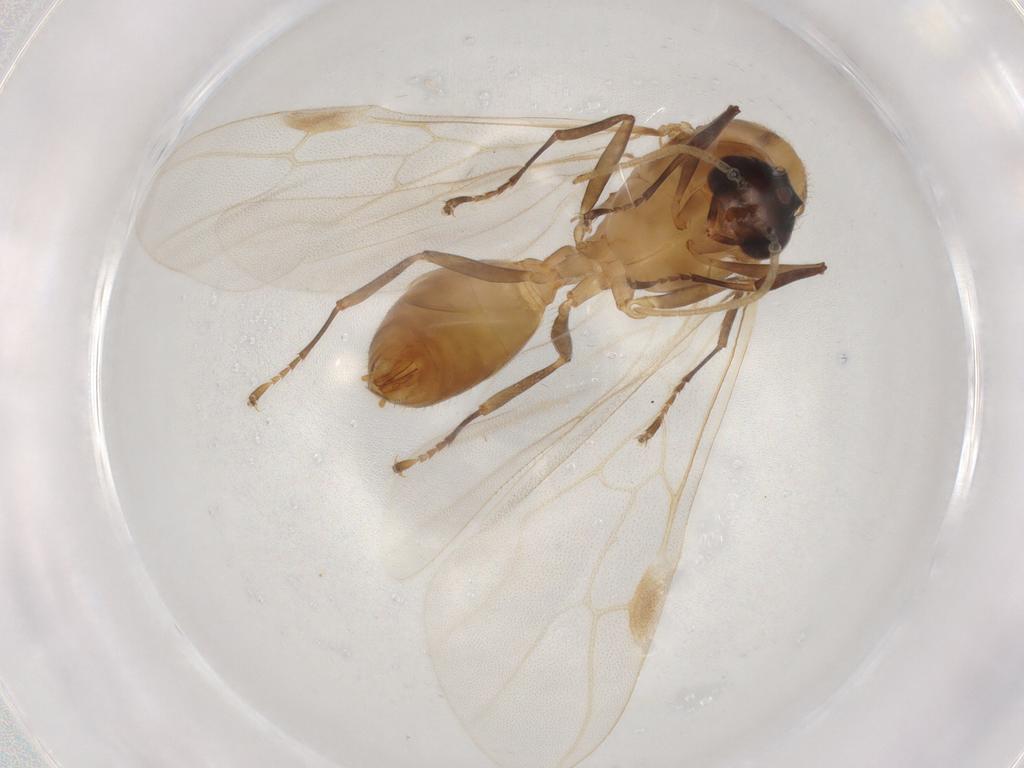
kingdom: Animalia
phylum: Arthropoda
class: Insecta
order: Hymenoptera
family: Formicidae
